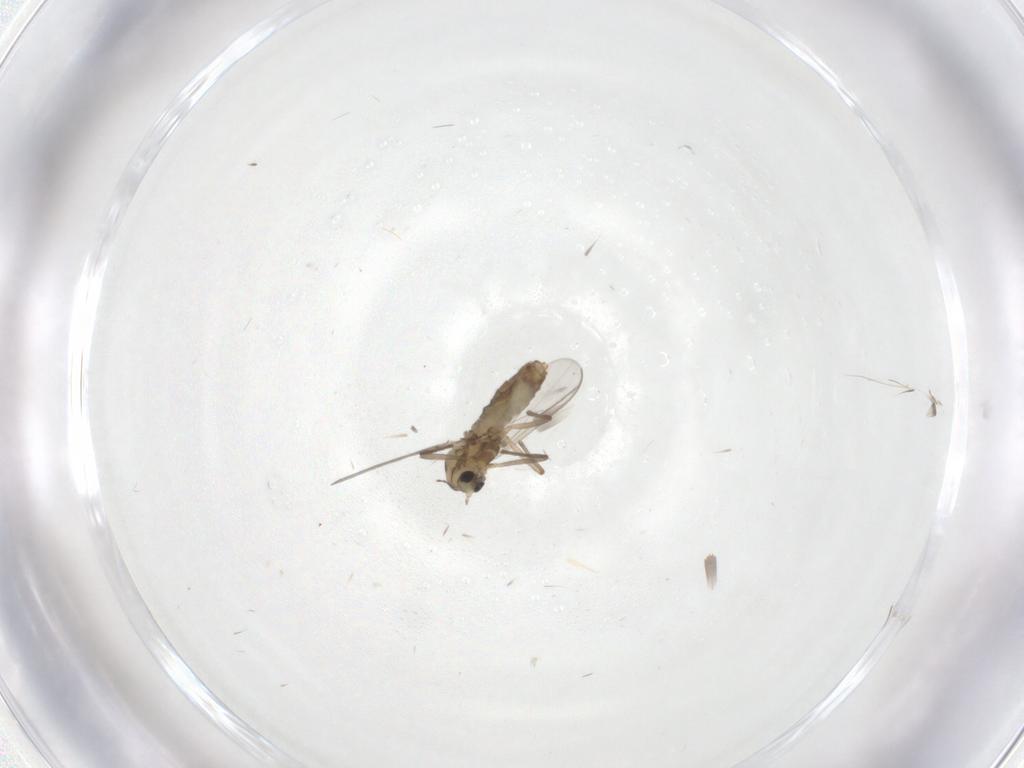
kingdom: Animalia
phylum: Arthropoda
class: Insecta
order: Diptera
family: Chironomidae
